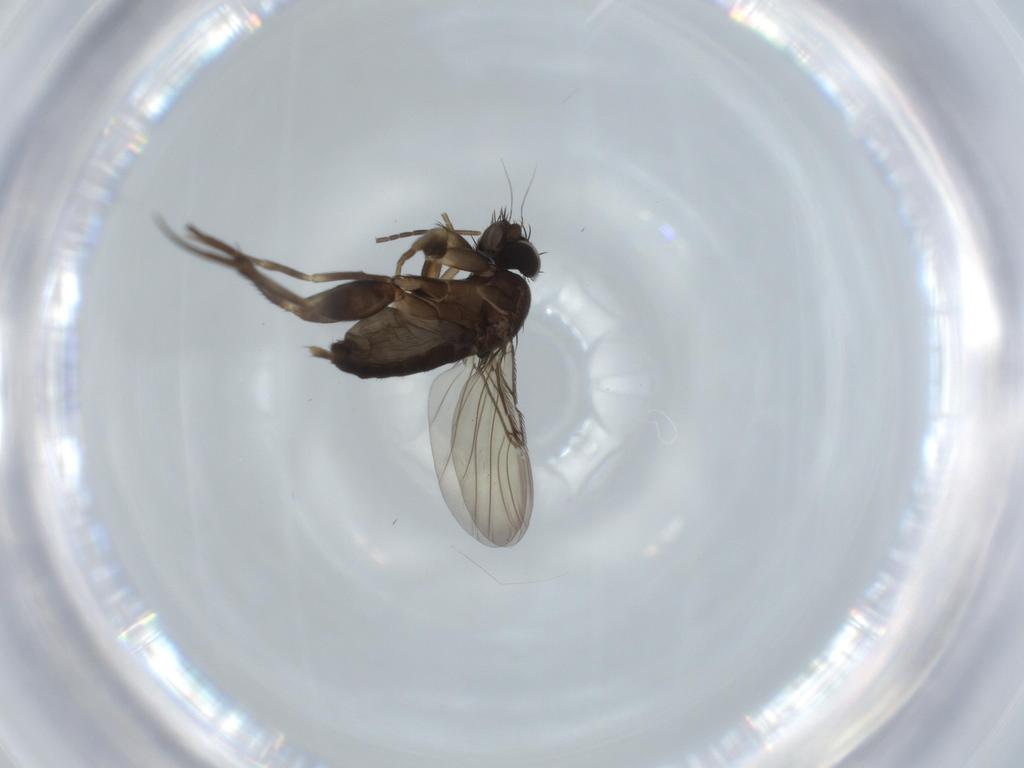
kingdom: Animalia
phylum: Arthropoda
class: Insecta
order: Diptera
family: Phoridae
